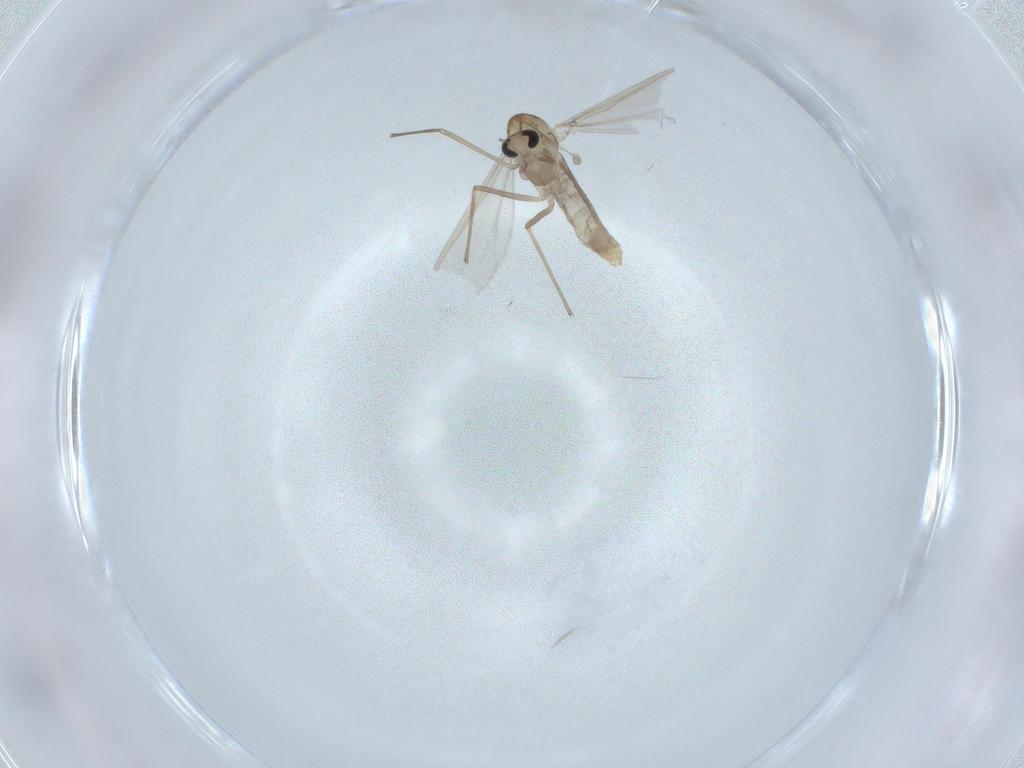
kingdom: Animalia
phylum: Arthropoda
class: Insecta
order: Diptera
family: Chironomidae
